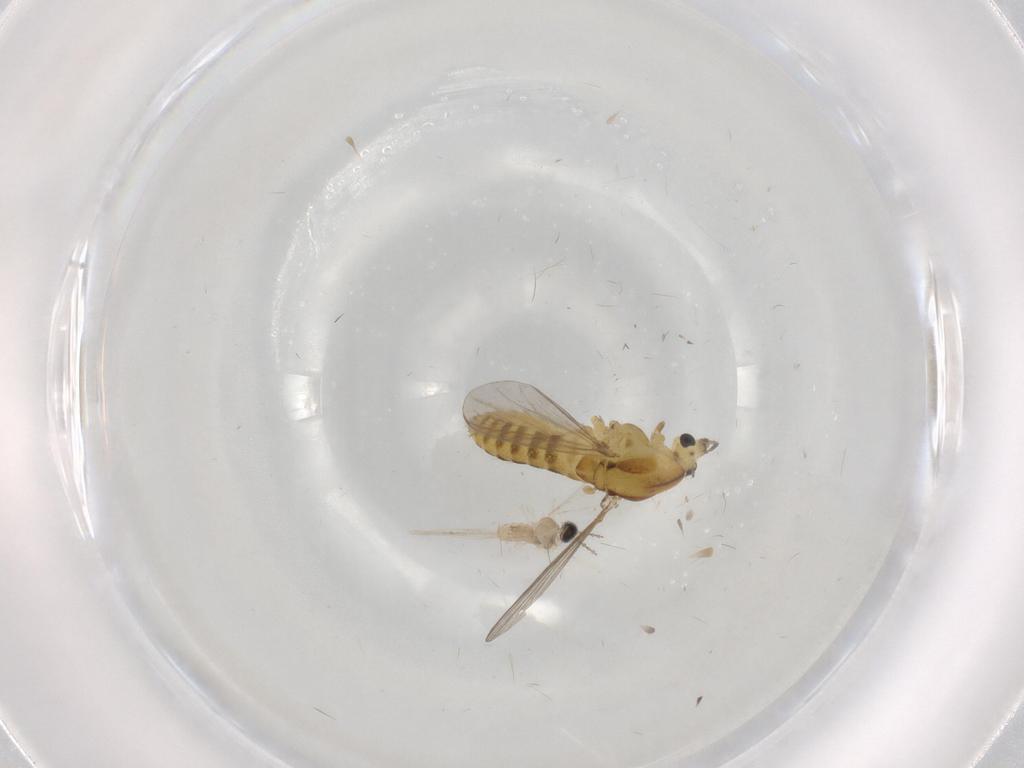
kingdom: Animalia
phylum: Arthropoda
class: Insecta
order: Diptera
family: Chironomidae
